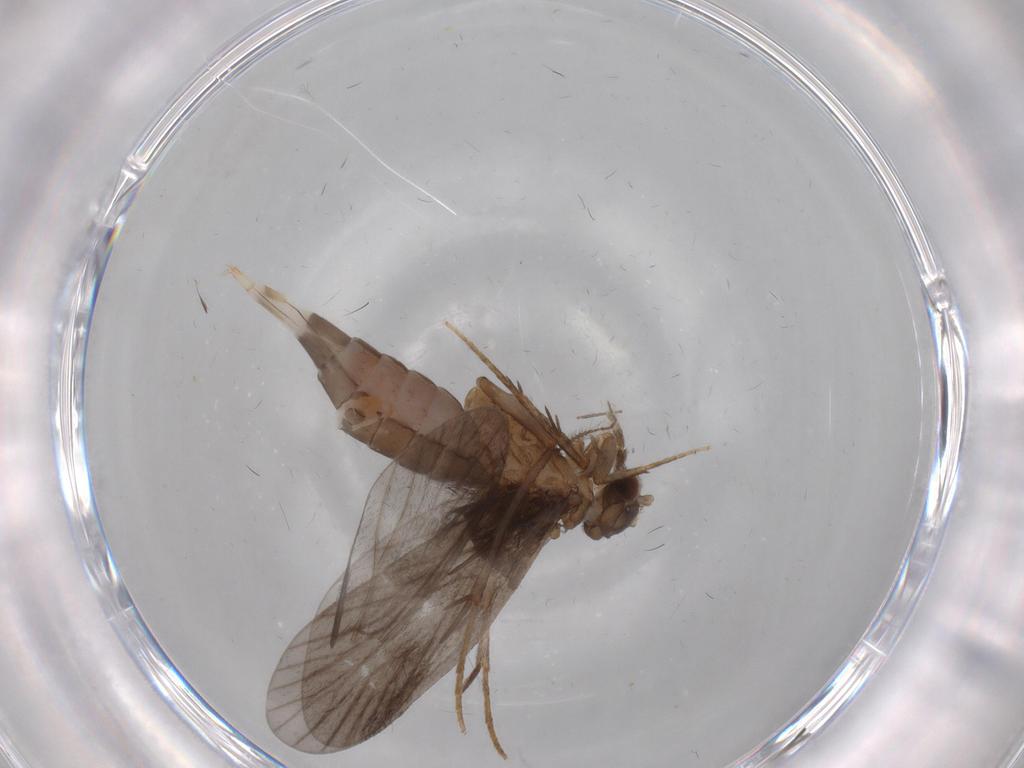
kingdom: Animalia
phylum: Arthropoda
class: Insecta
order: Trichoptera
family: Philopotamidae
